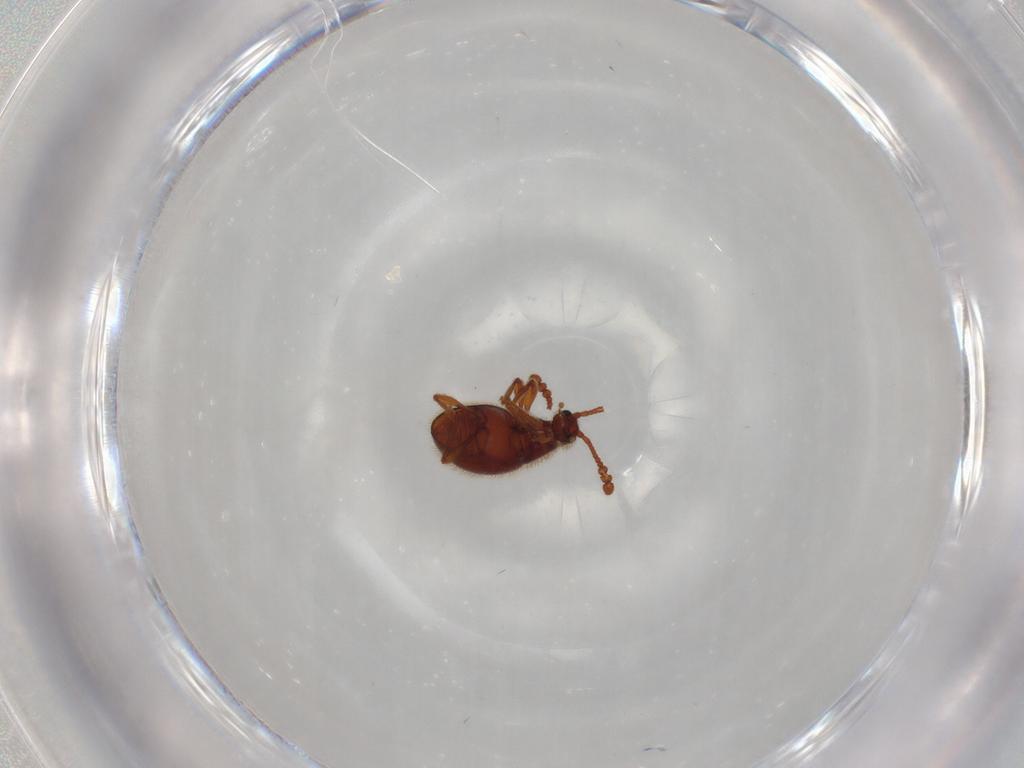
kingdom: Animalia
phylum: Arthropoda
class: Insecta
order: Coleoptera
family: Staphylinidae
